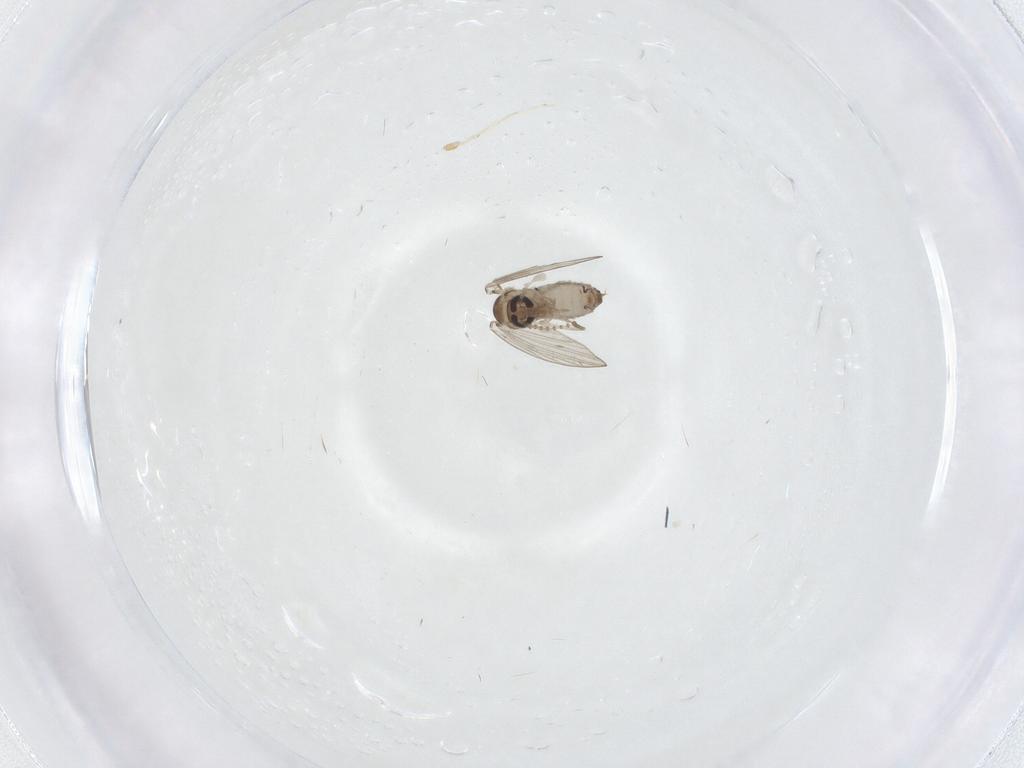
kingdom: Animalia
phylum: Arthropoda
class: Insecta
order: Diptera
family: Psychodidae
